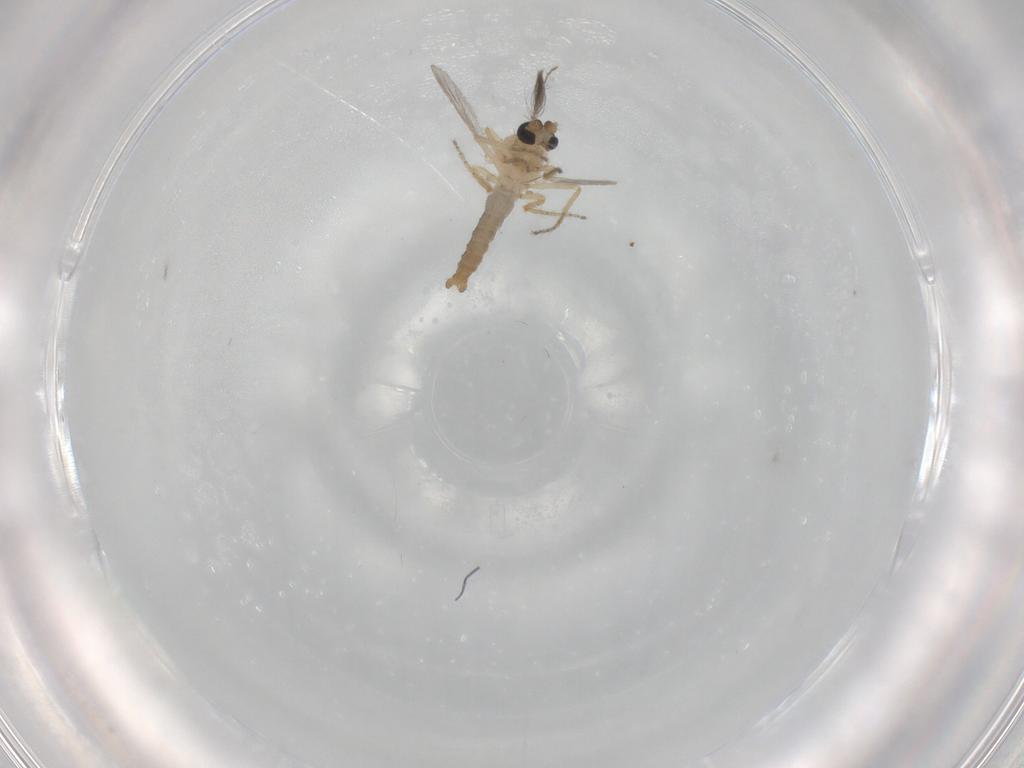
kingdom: Animalia
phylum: Arthropoda
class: Insecta
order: Diptera
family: Ceratopogonidae
